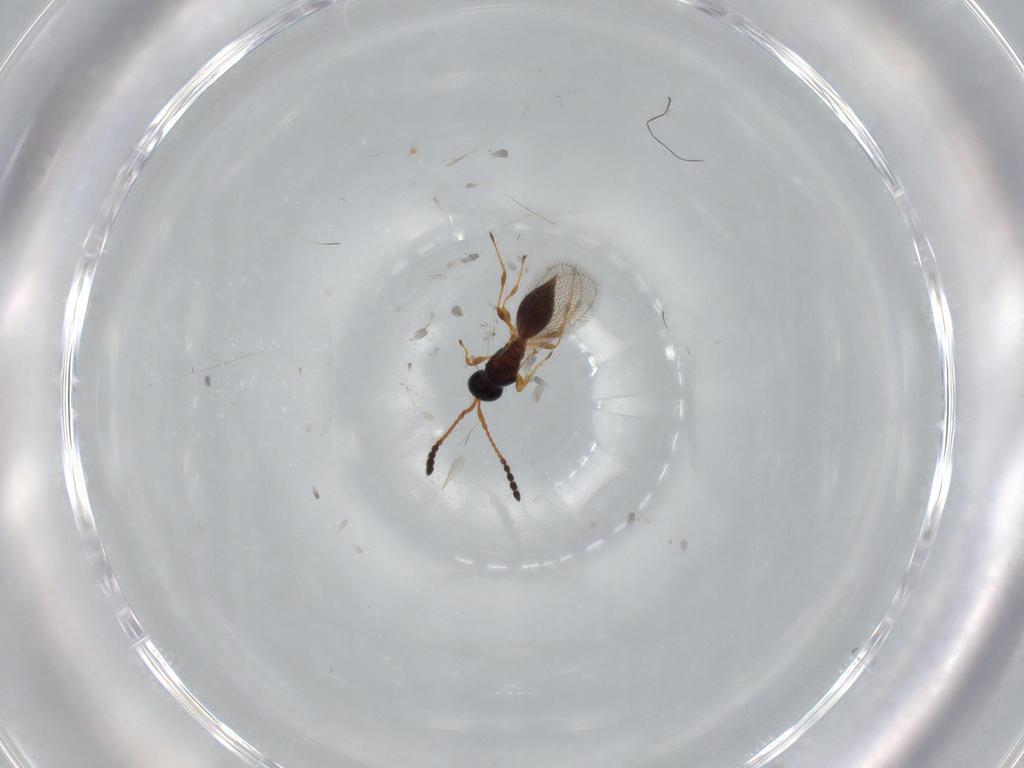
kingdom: Animalia
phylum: Arthropoda
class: Insecta
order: Hymenoptera
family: Diapriidae
